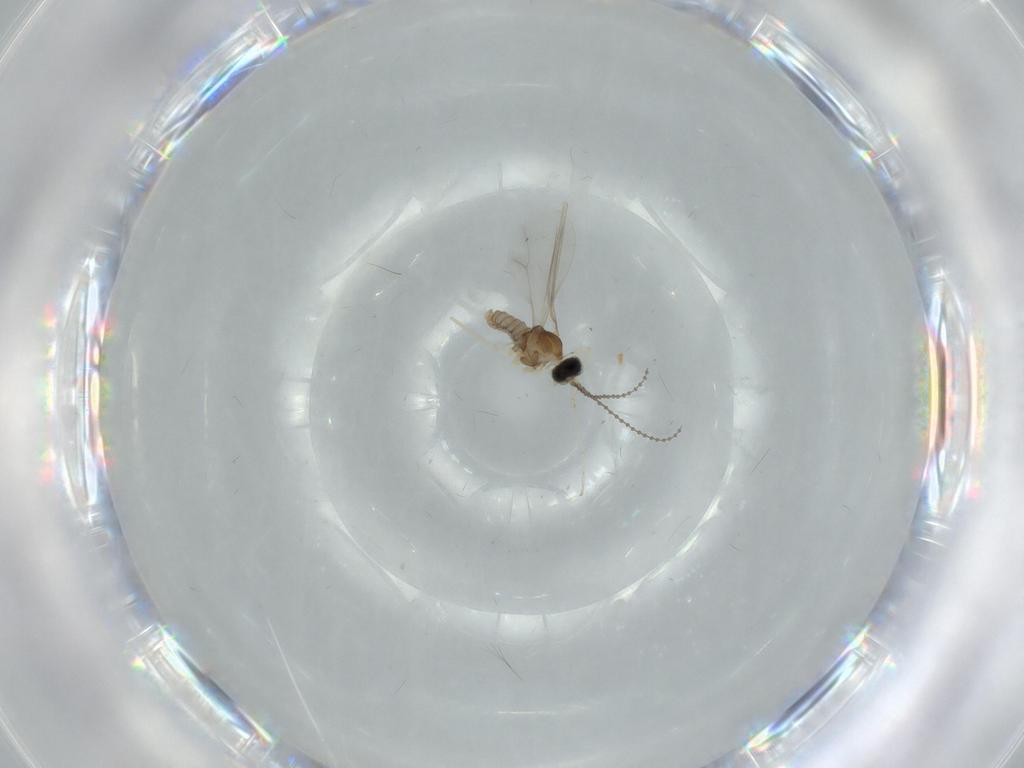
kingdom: Animalia
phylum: Arthropoda
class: Insecta
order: Diptera
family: Cecidomyiidae
